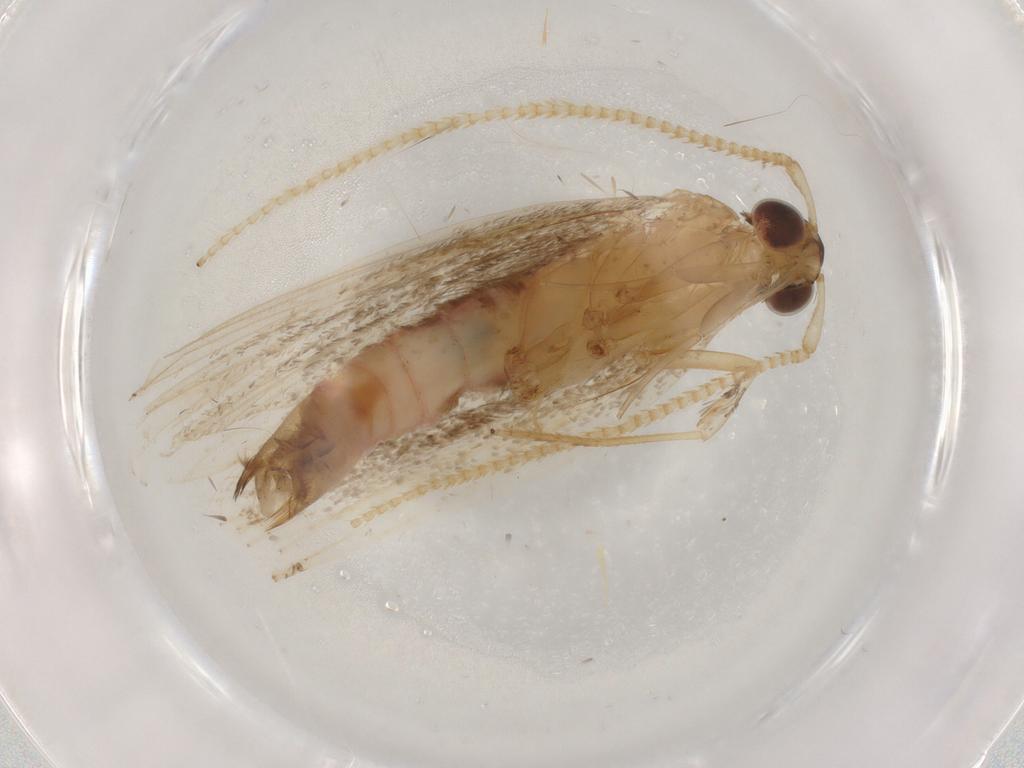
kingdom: Animalia
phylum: Arthropoda
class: Insecta
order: Lepidoptera
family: Lecithoceridae
